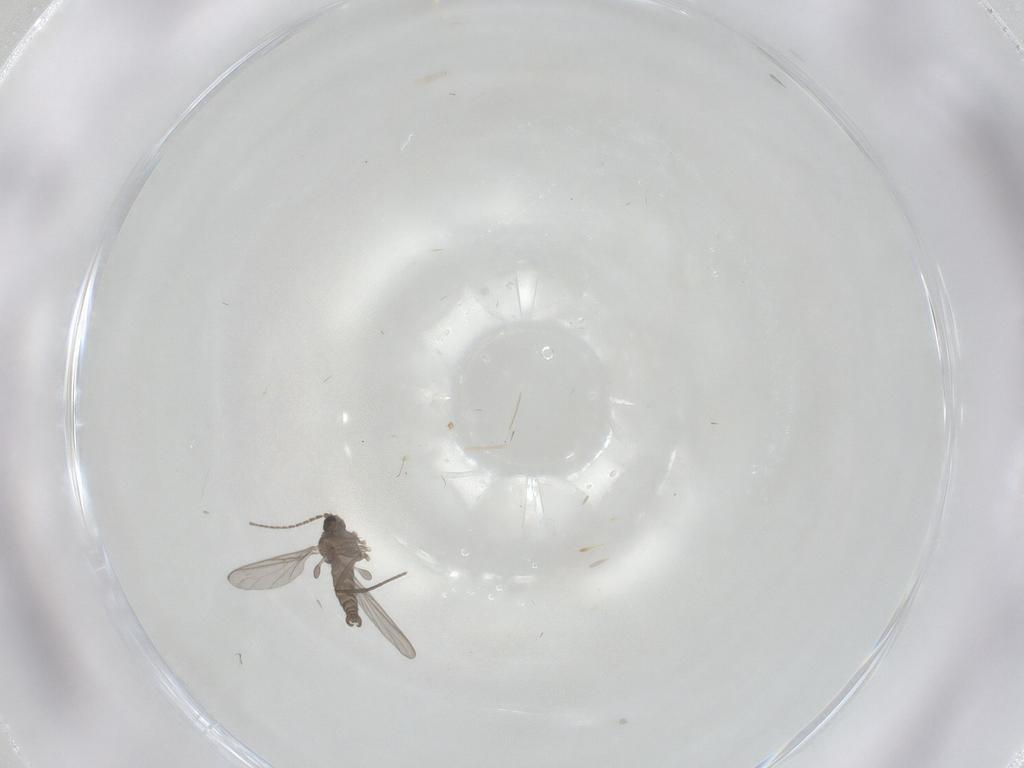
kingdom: Animalia
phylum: Arthropoda
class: Insecta
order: Diptera
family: Sciaridae
